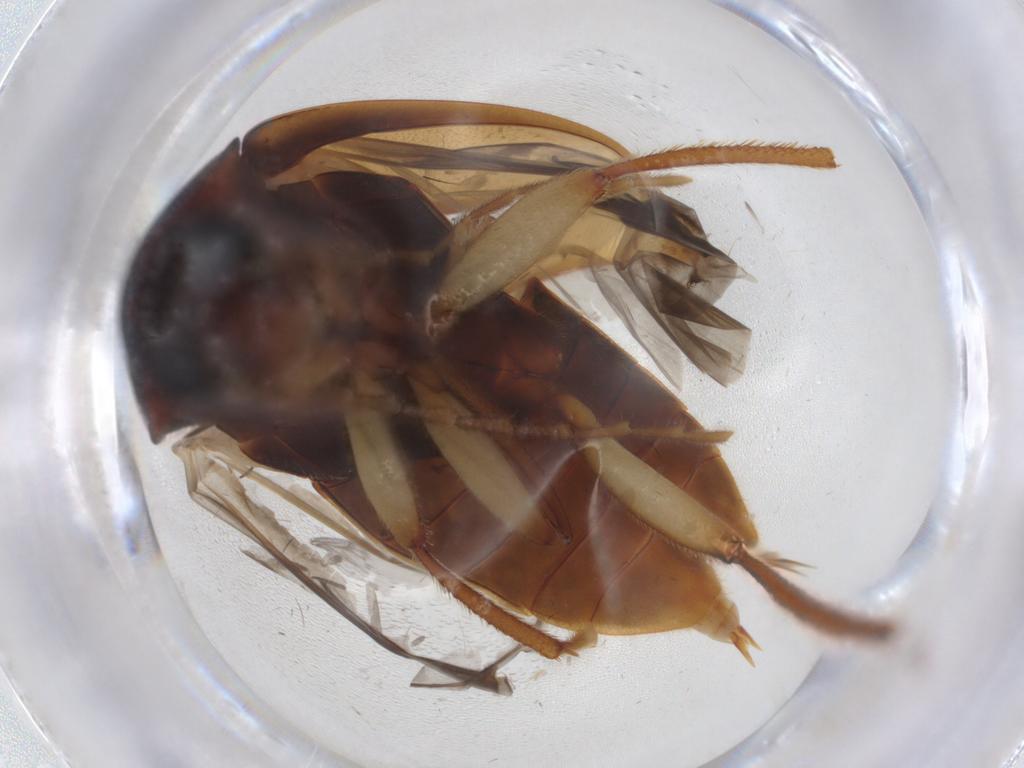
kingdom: Animalia
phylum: Arthropoda
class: Insecta
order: Coleoptera
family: Ptilodactylidae
